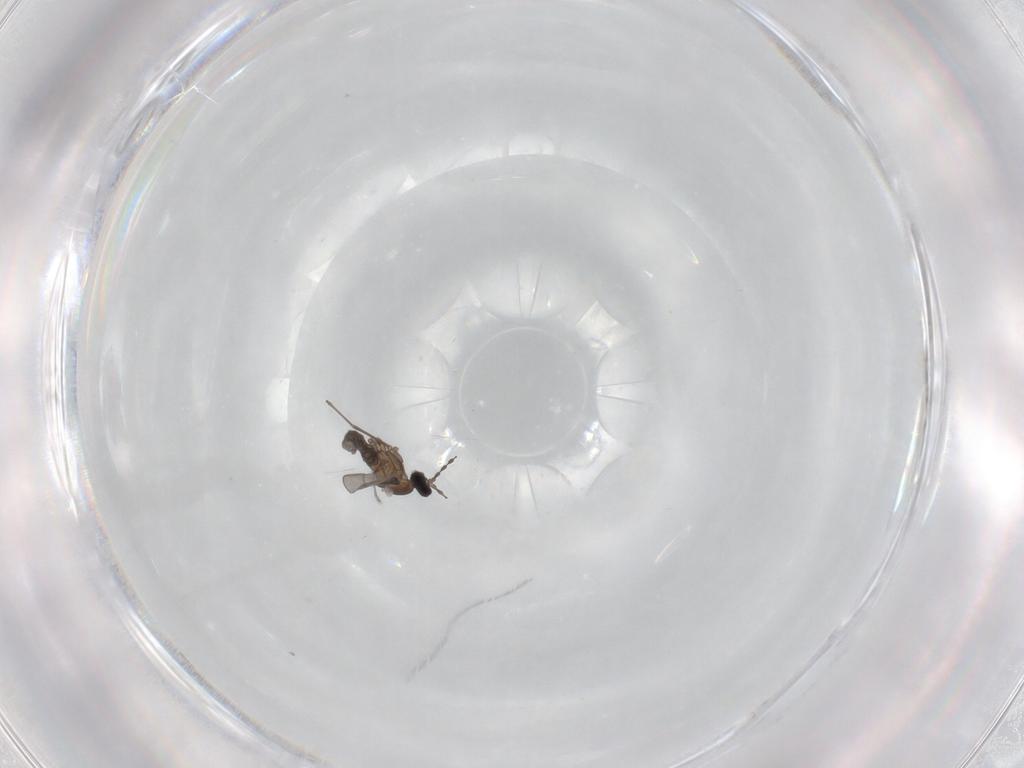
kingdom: Animalia
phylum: Arthropoda
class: Insecta
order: Diptera
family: Cecidomyiidae
